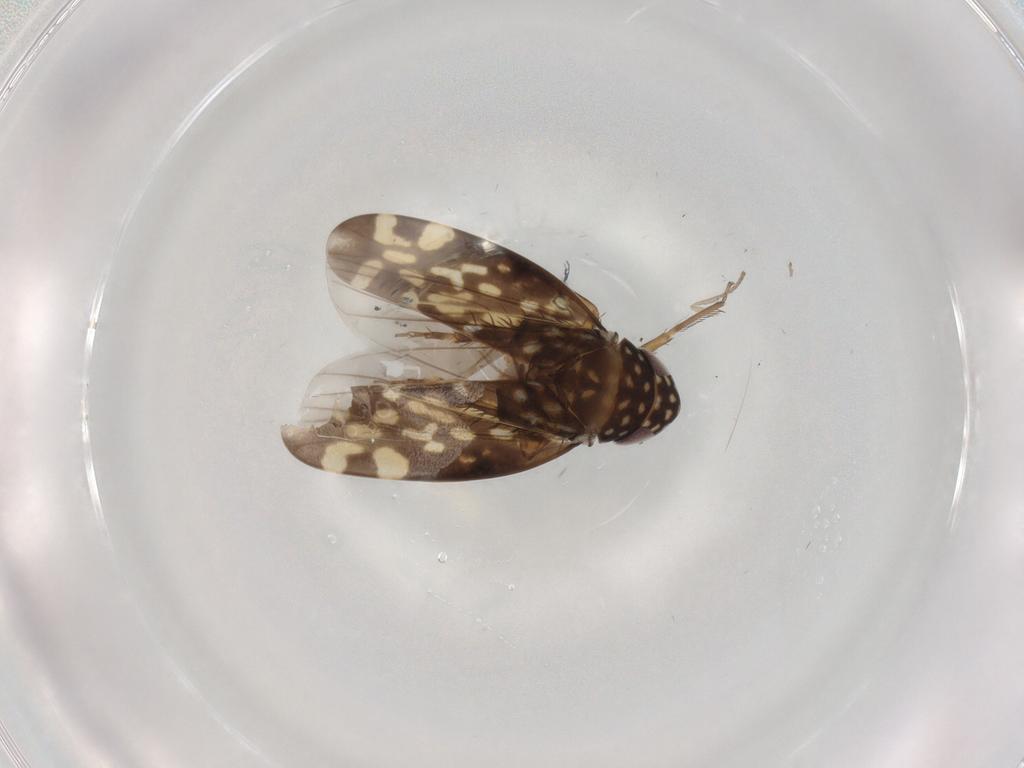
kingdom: Animalia
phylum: Arthropoda
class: Insecta
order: Hemiptera
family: Cicadellidae
